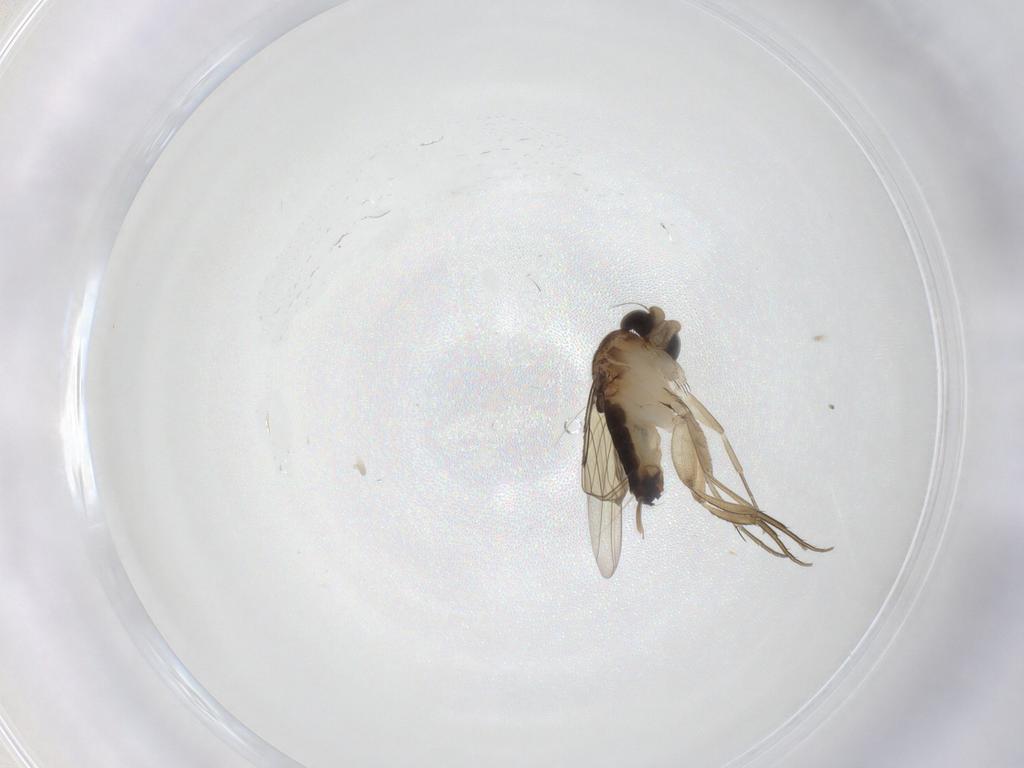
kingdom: Animalia
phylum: Arthropoda
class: Insecta
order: Diptera
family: Phoridae
